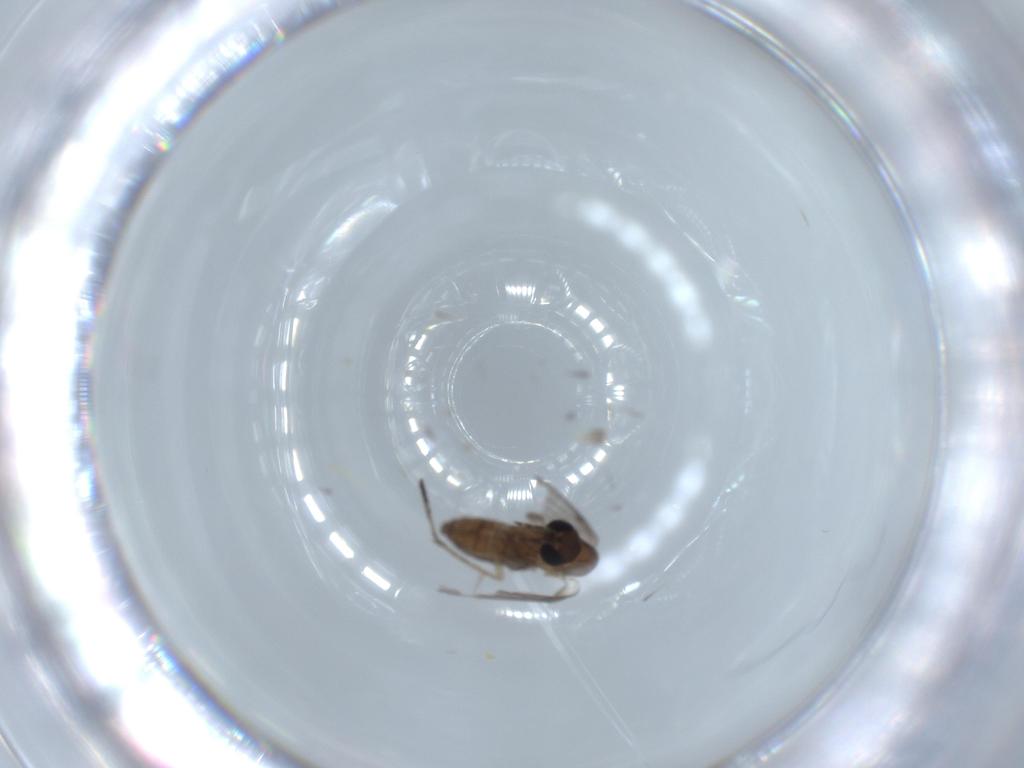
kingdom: Animalia
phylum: Arthropoda
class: Insecta
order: Diptera
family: Psychodidae
